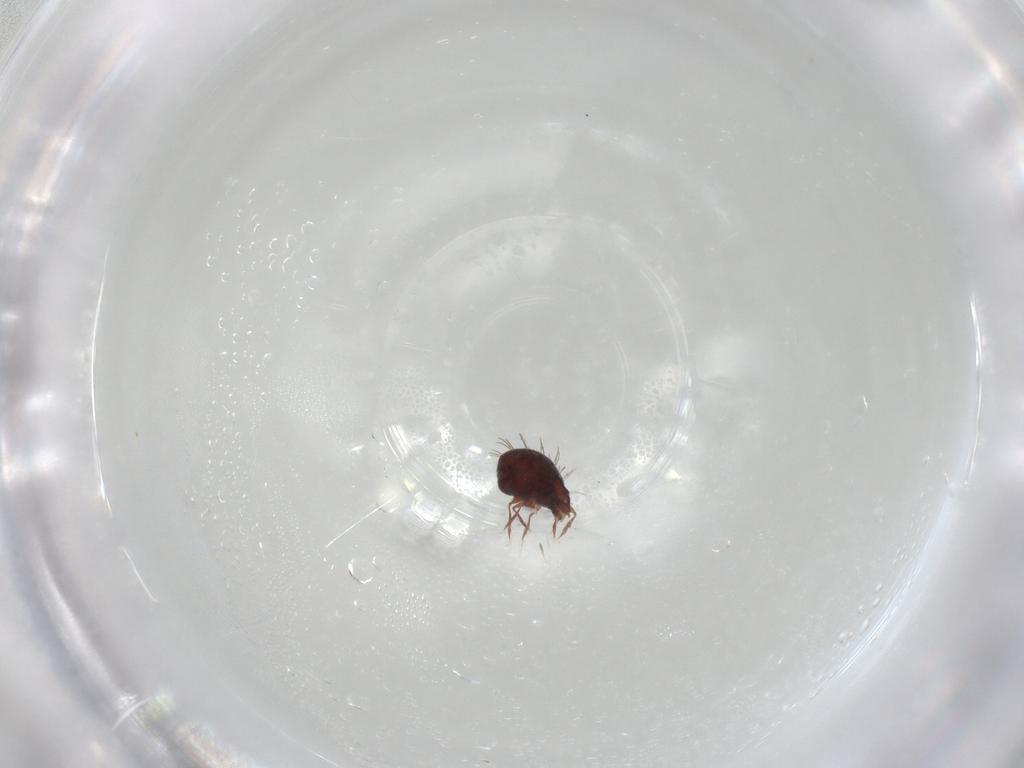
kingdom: Animalia
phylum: Arthropoda
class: Arachnida
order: Sarcoptiformes
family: Caloppiidae
